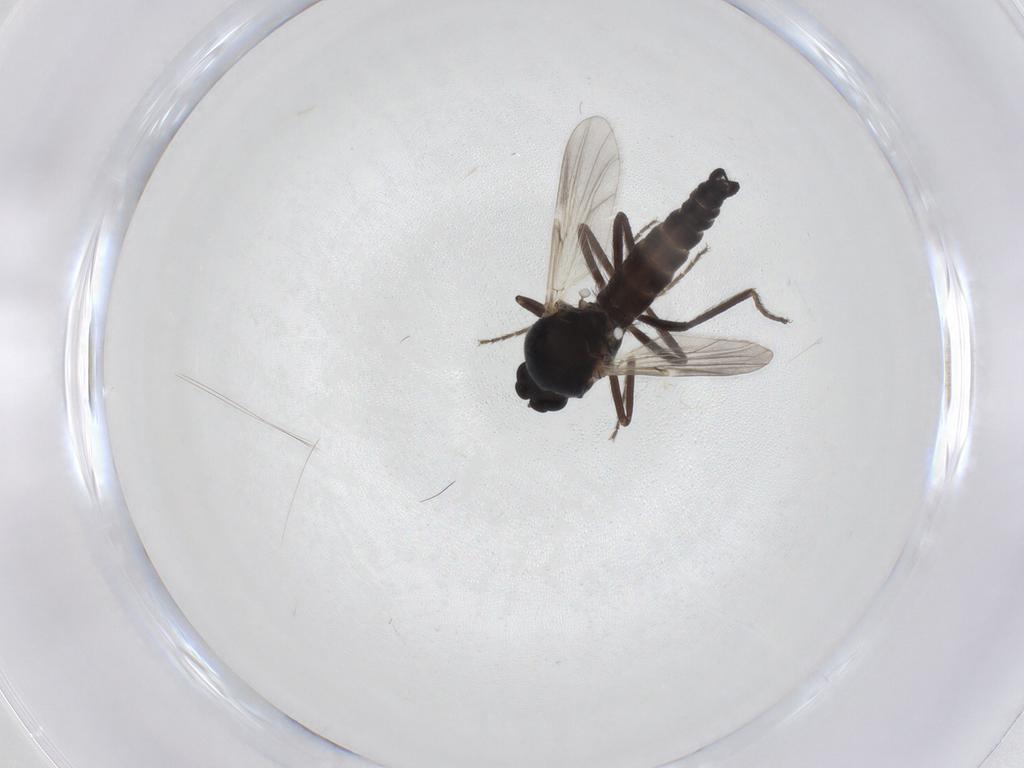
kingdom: Animalia
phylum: Arthropoda
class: Insecta
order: Diptera
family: Ceratopogonidae
